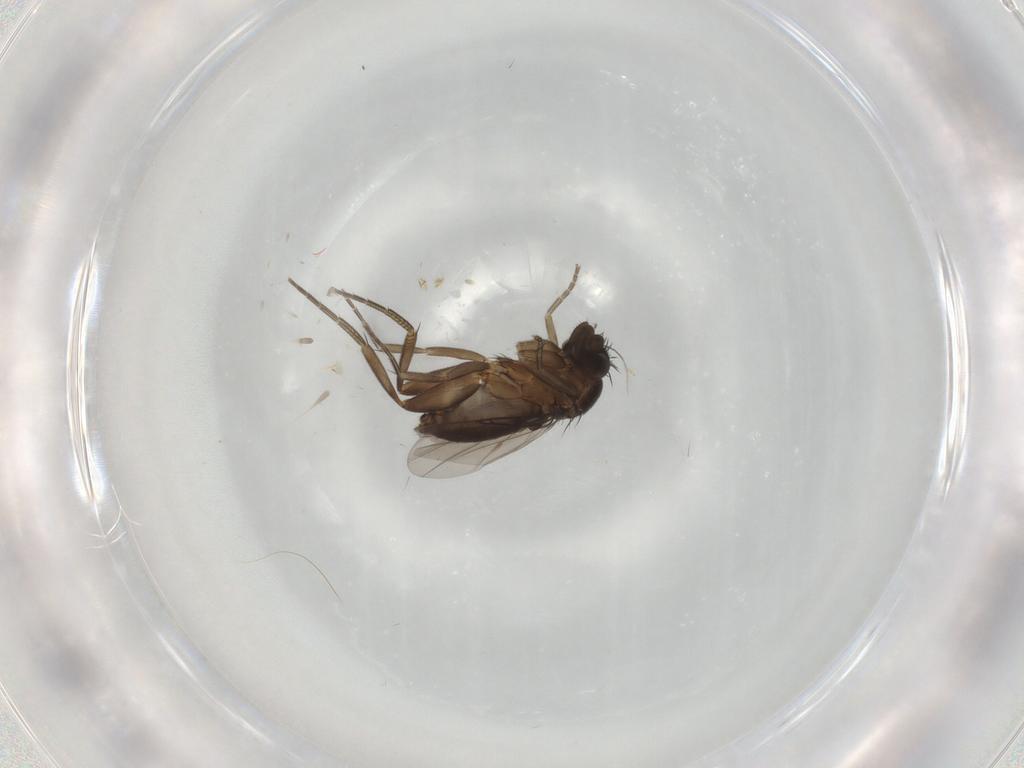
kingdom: Animalia
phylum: Arthropoda
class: Insecta
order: Diptera
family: Phoridae
